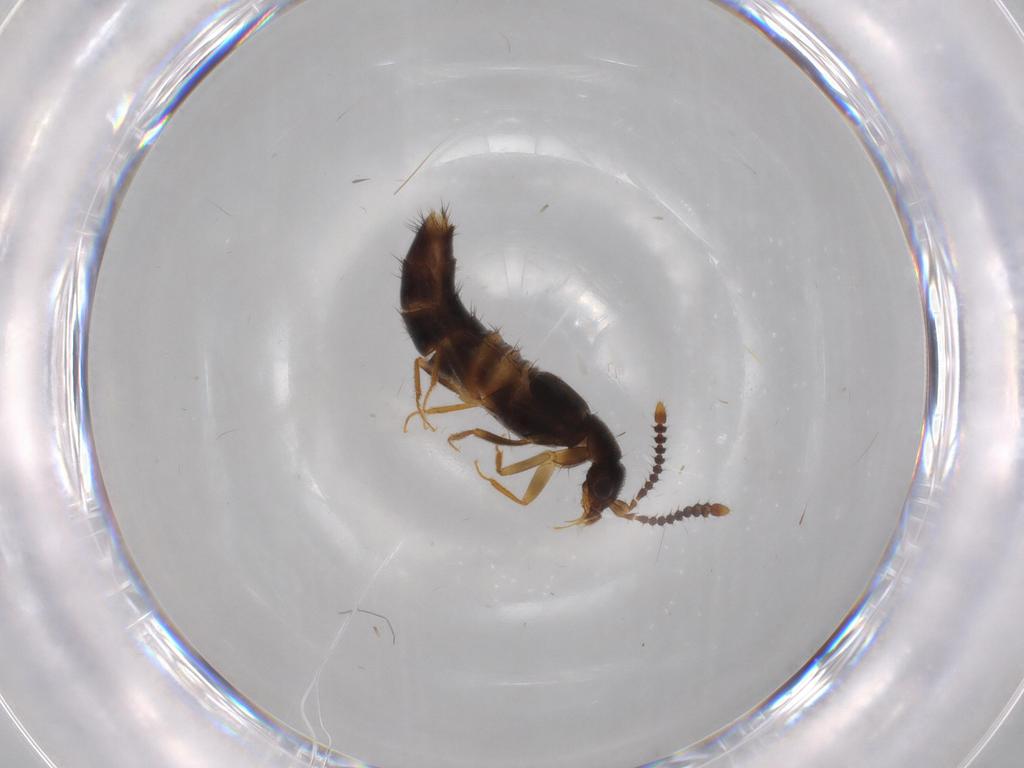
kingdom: Animalia
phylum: Arthropoda
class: Insecta
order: Coleoptera
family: Staphylinidae
